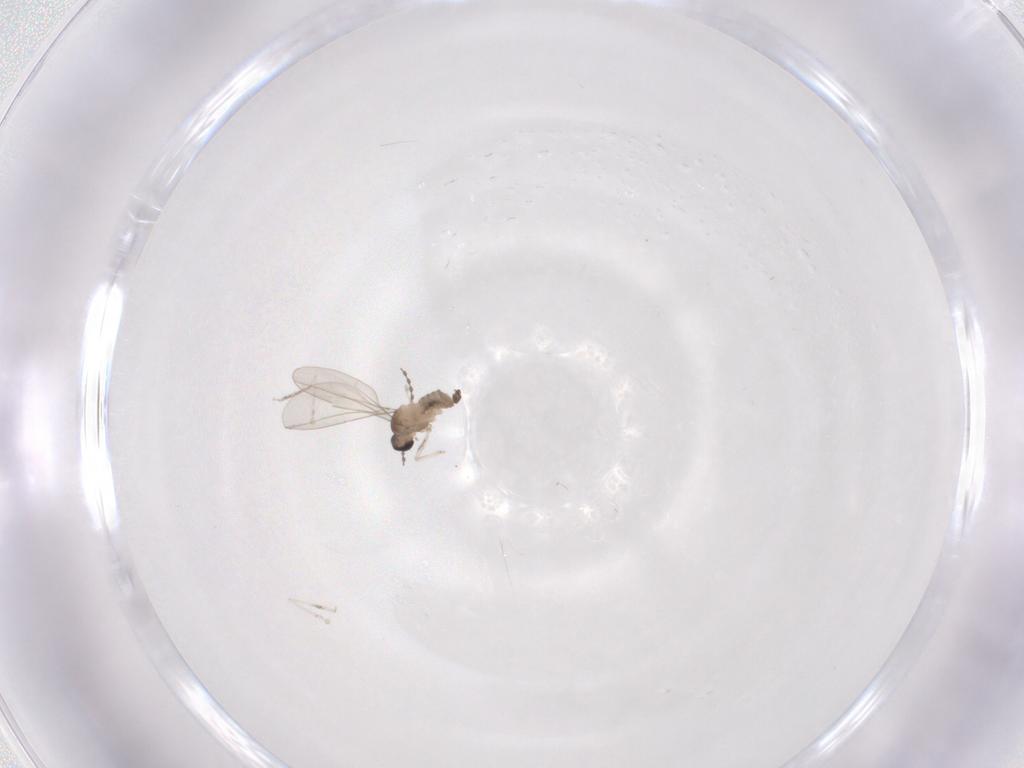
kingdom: Animalia
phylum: Arthropoda
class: Insecta
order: Diptera
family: Cecidomyiidae
